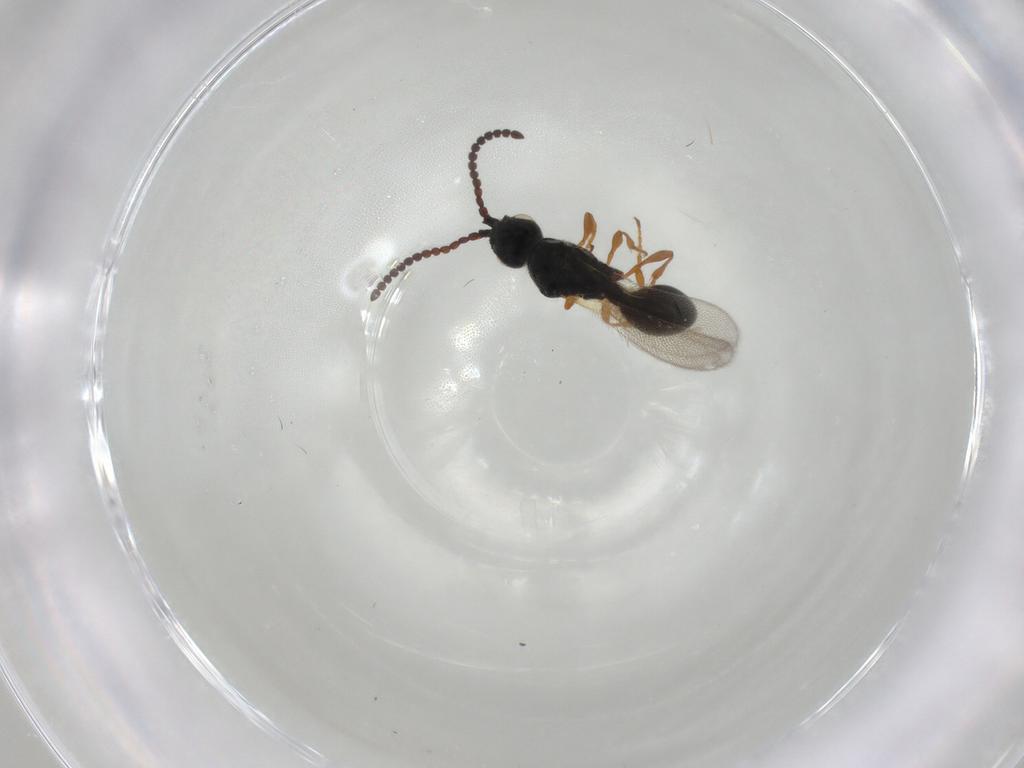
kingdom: Animalia
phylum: Arthropoda
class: Insecta
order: Hymenoptera
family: Diapriidae
